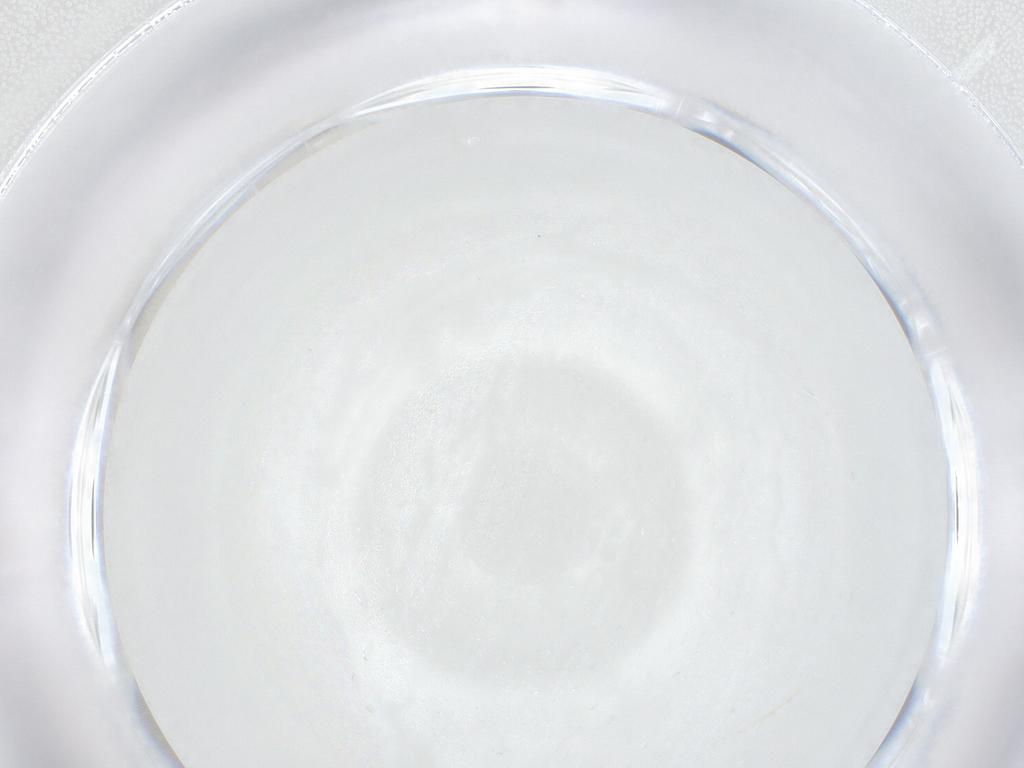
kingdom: Animalia
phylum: Arthropoda
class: Insecta
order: Diptera
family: Cecidomyiidae
